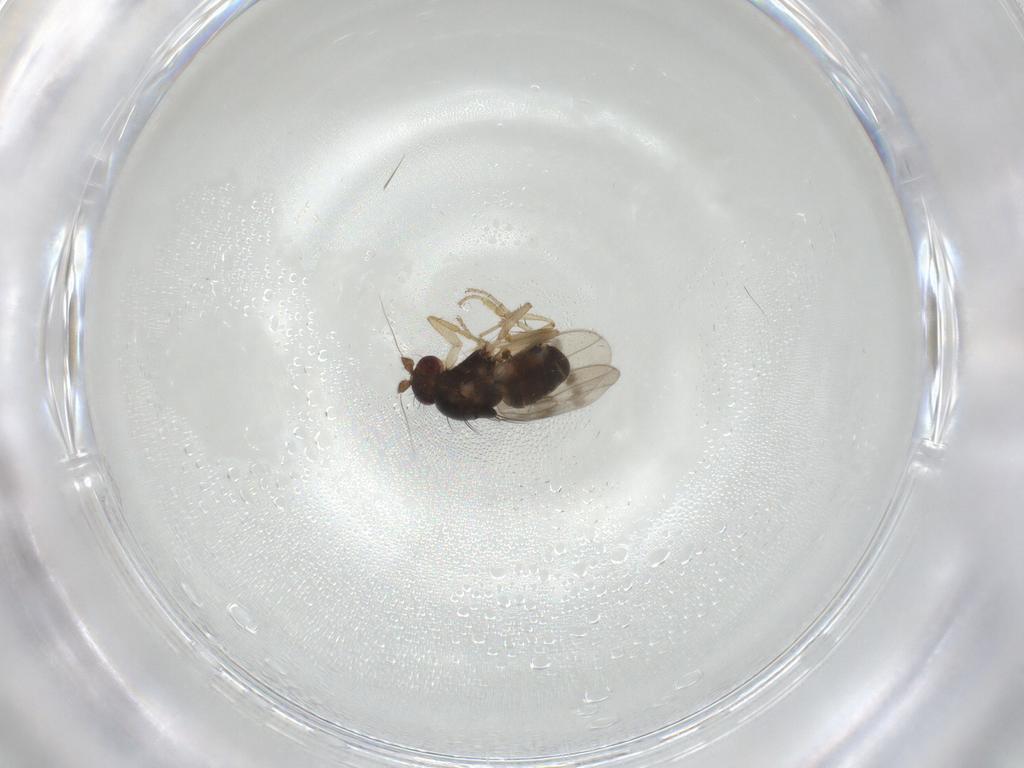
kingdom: Animalia
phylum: Arthropoda
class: Insecta
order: Diptera
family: Sphaeroceridae
